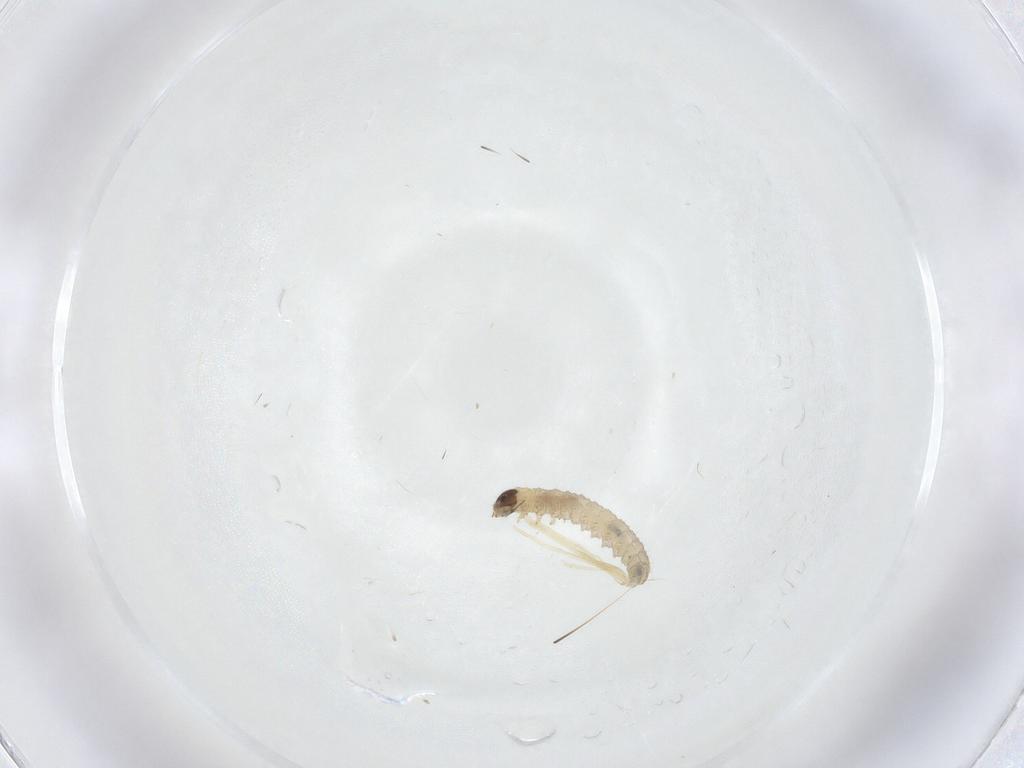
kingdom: Animalia
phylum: Arthropoda
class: Insecta
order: Lepidoptera
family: Tortricidae
